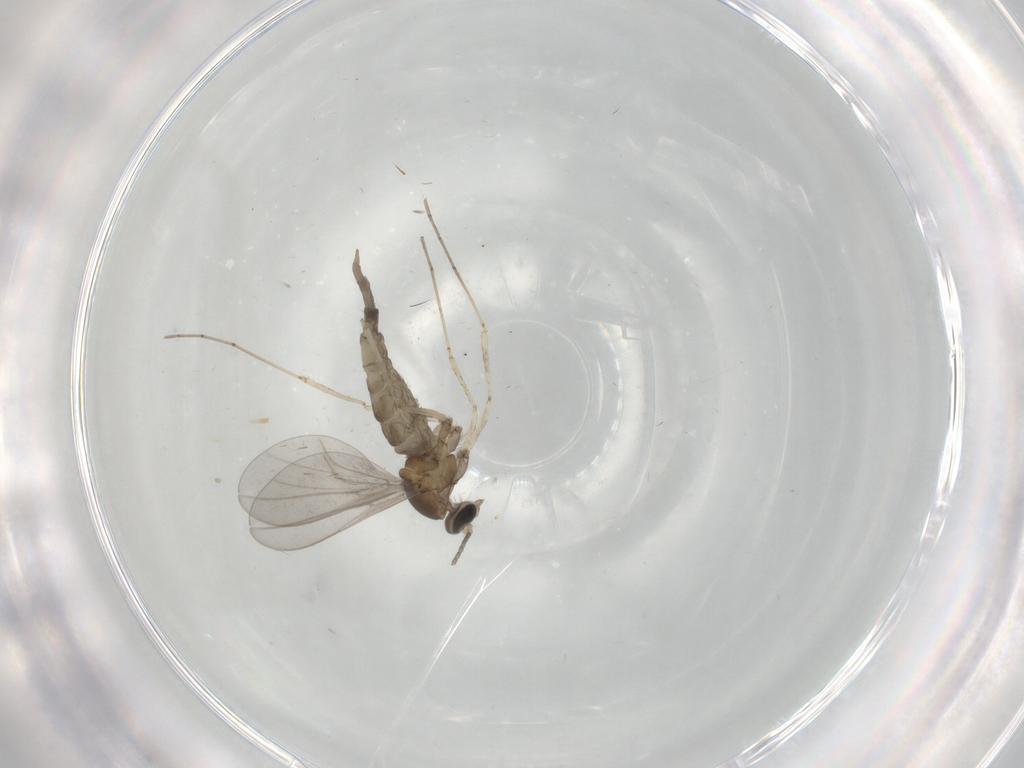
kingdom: Animalia
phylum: Arthropoda
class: Insecta
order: Diptera
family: Cecidomyiidae
